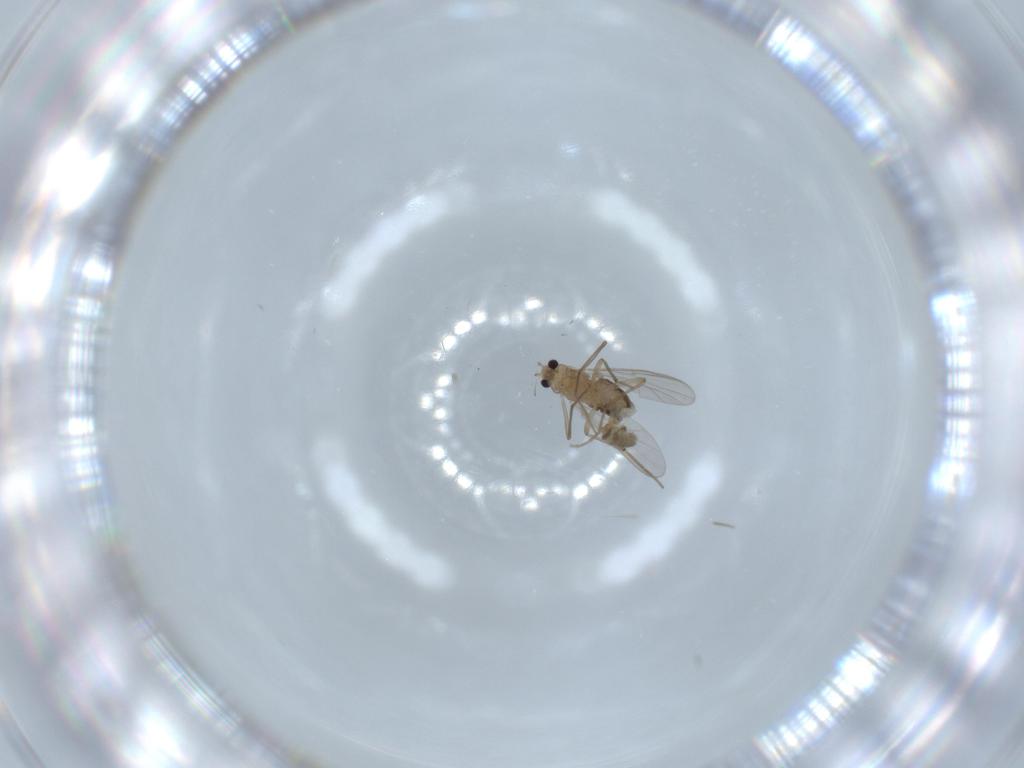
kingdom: Animalia
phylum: Arthropoda
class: Insecta
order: Diptera
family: Chironomidae
